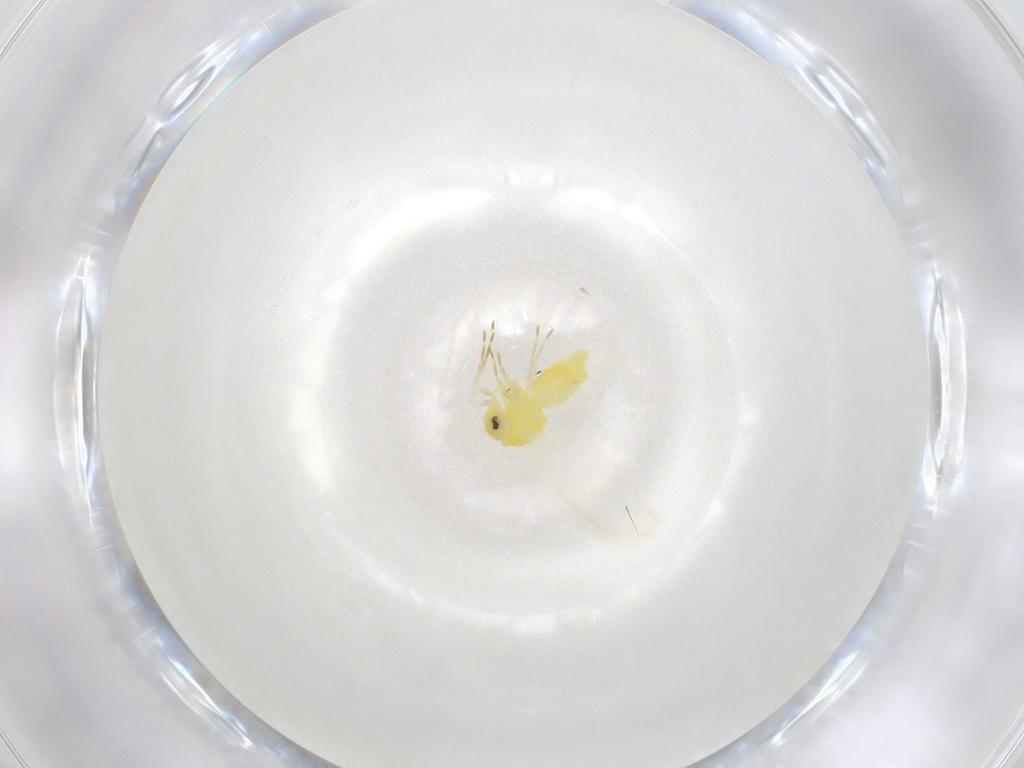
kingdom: Animalia
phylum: Arthropoda
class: Insecta
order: Hemiptera
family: Aleyrodidae
